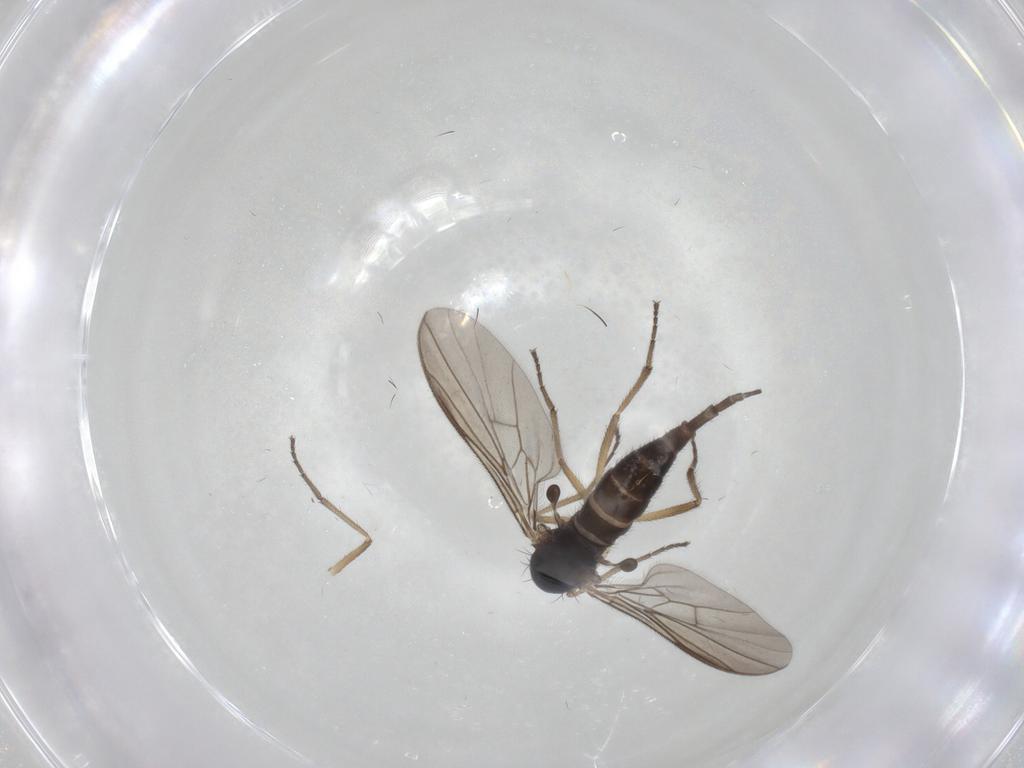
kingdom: Animalia
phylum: Arthropoda
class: Insecta
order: Diptera
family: Empididae
